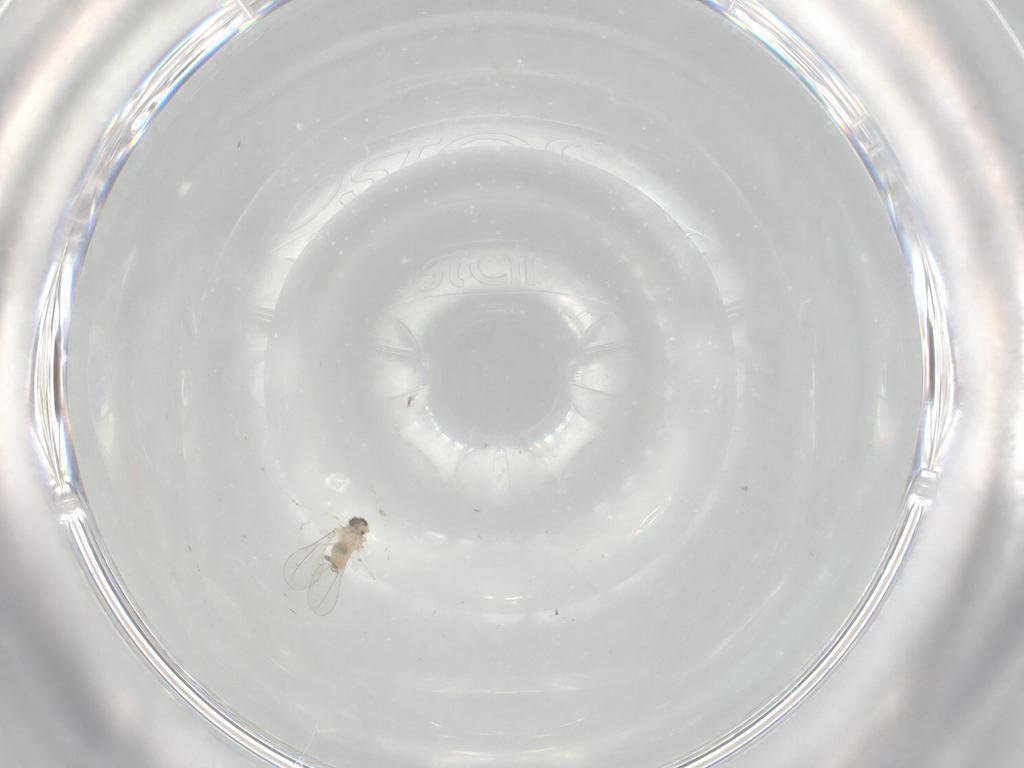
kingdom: Animalia
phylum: Arthropoda
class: Insecta
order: Diptera
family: Cecidomyiidae
